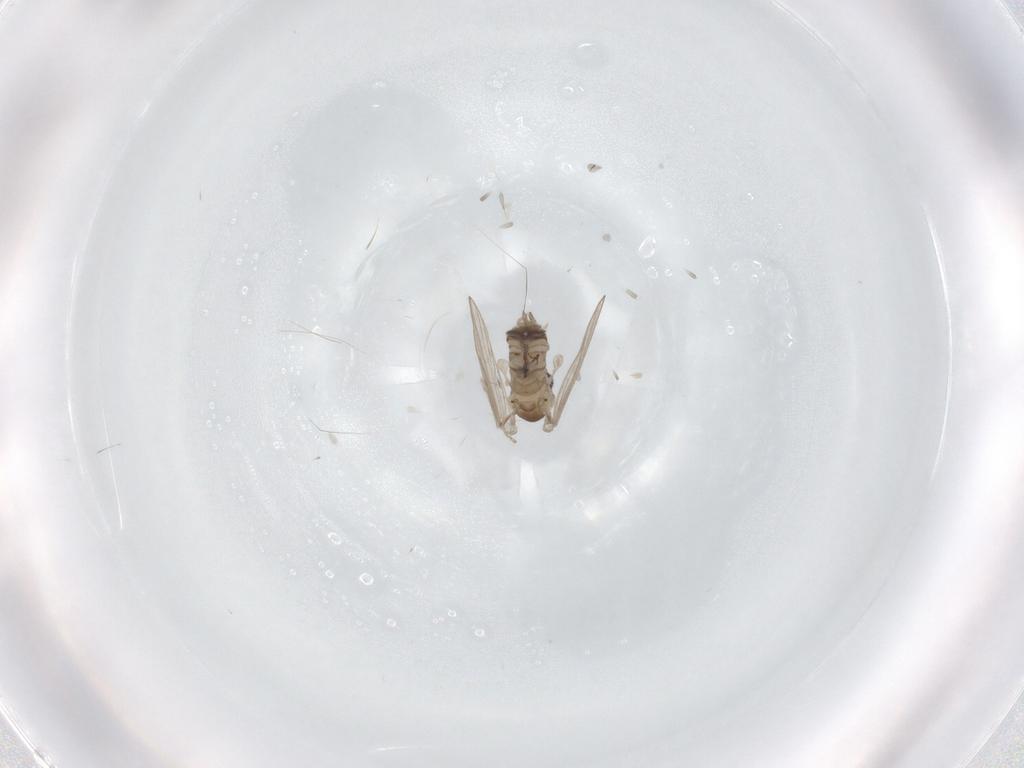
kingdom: Animalia
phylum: Arthropoda
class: Insecta
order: Diptera
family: Psychodidae
